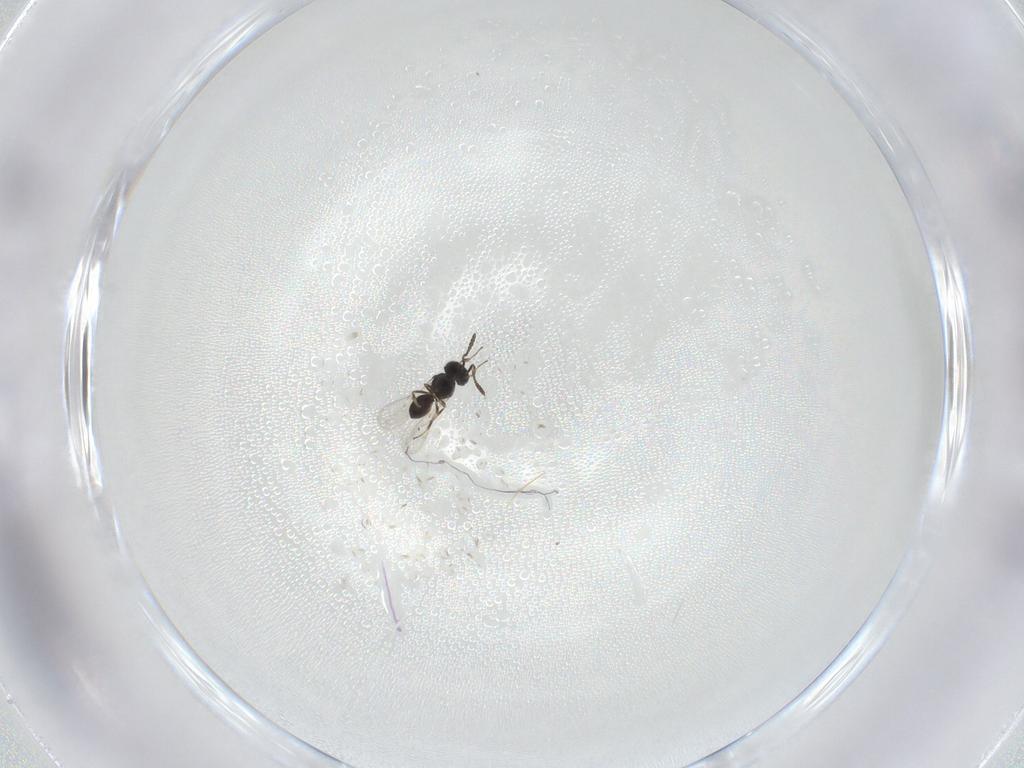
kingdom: Animalia
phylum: Arthropoda
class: Insecta
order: Hymenoptera
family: Scelionidae
